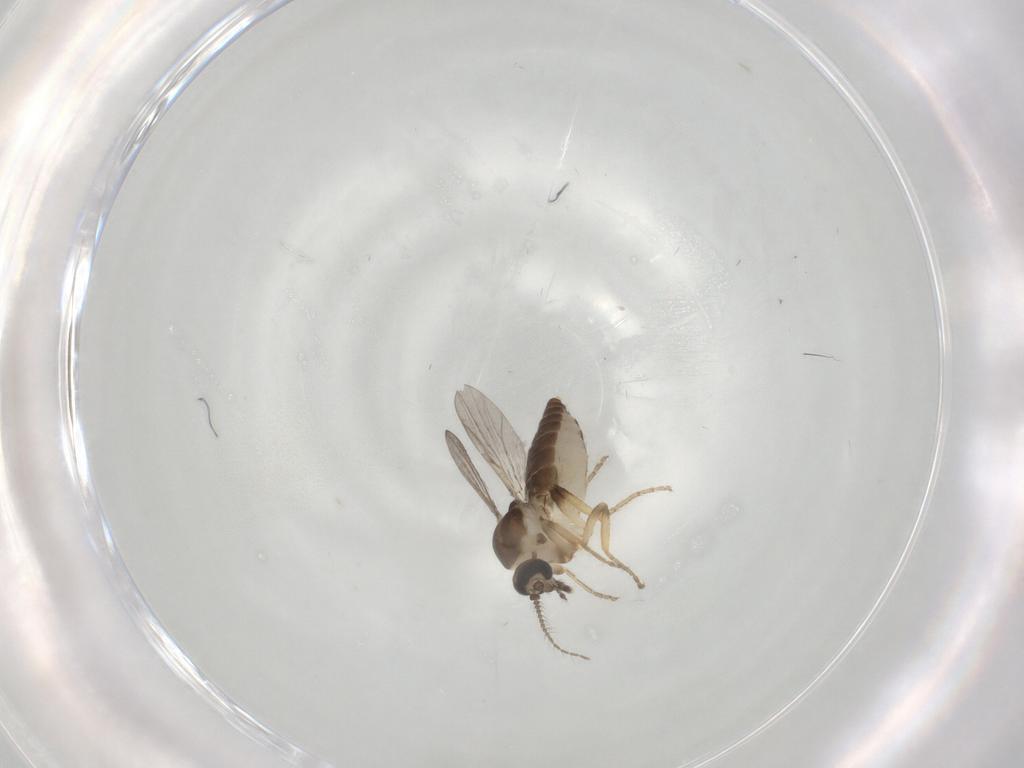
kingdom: Animalia
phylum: Arthropoda
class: Insecta
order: Diptera
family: Ceratopogonidae
